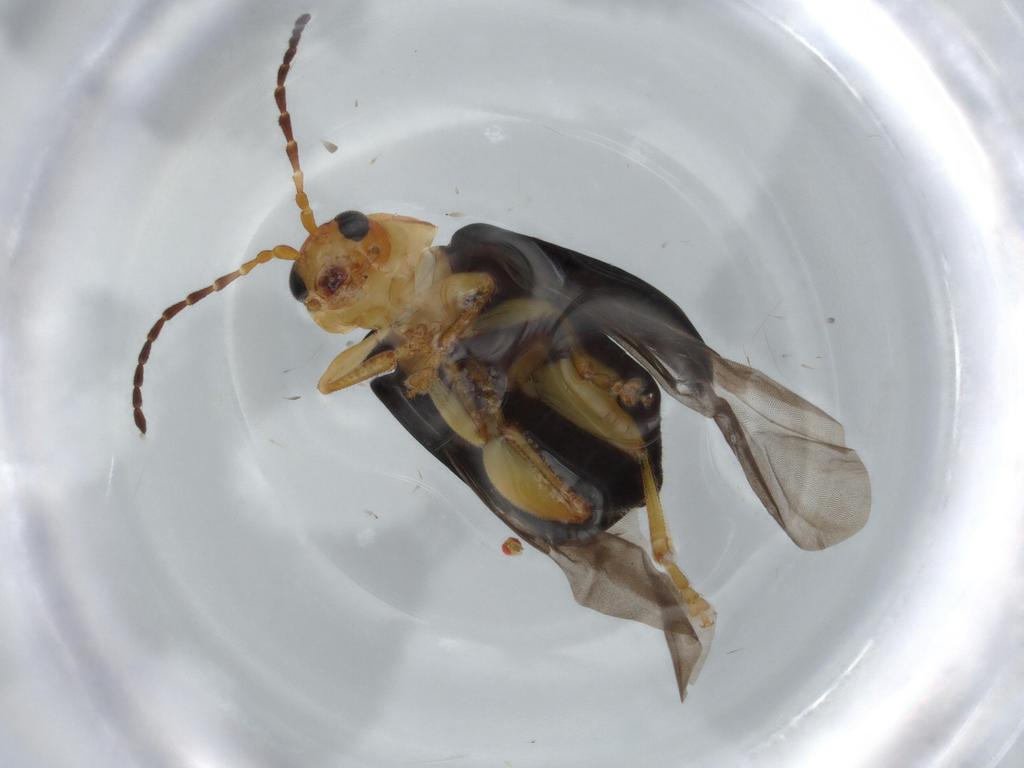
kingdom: Animalia
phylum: Arthropoda
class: Insecta
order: Coleoptera
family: Chrysomelidae
